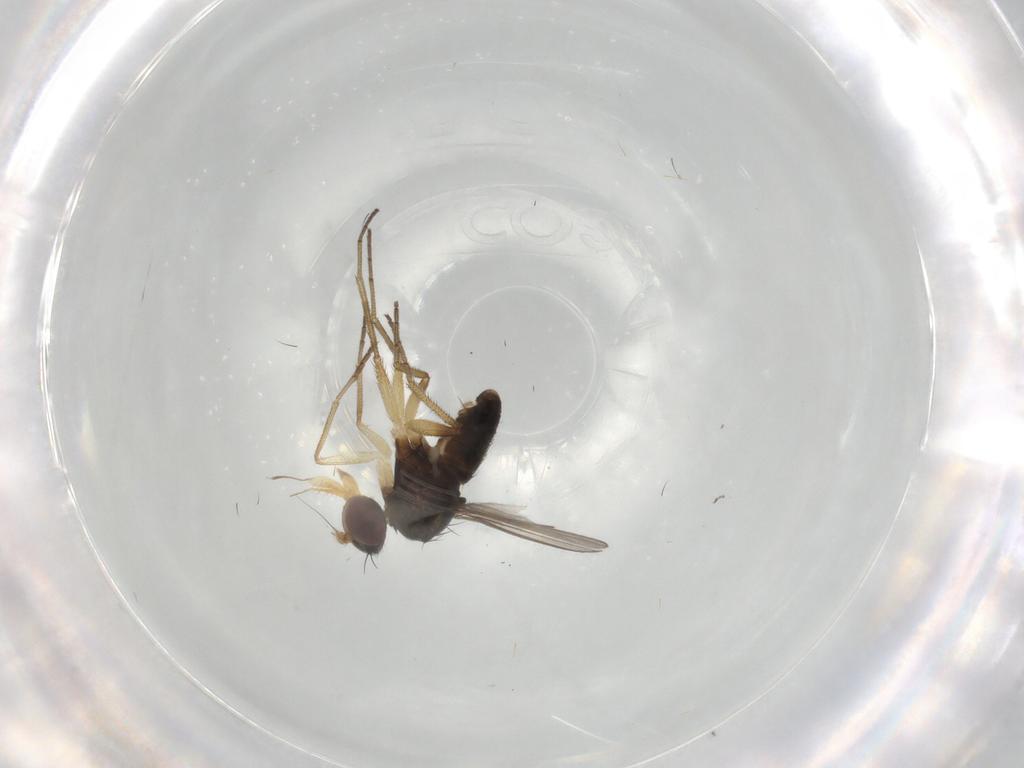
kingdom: Animalia
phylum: Arthropoda
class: Insecta
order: Diptera
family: Dolichopodidae
